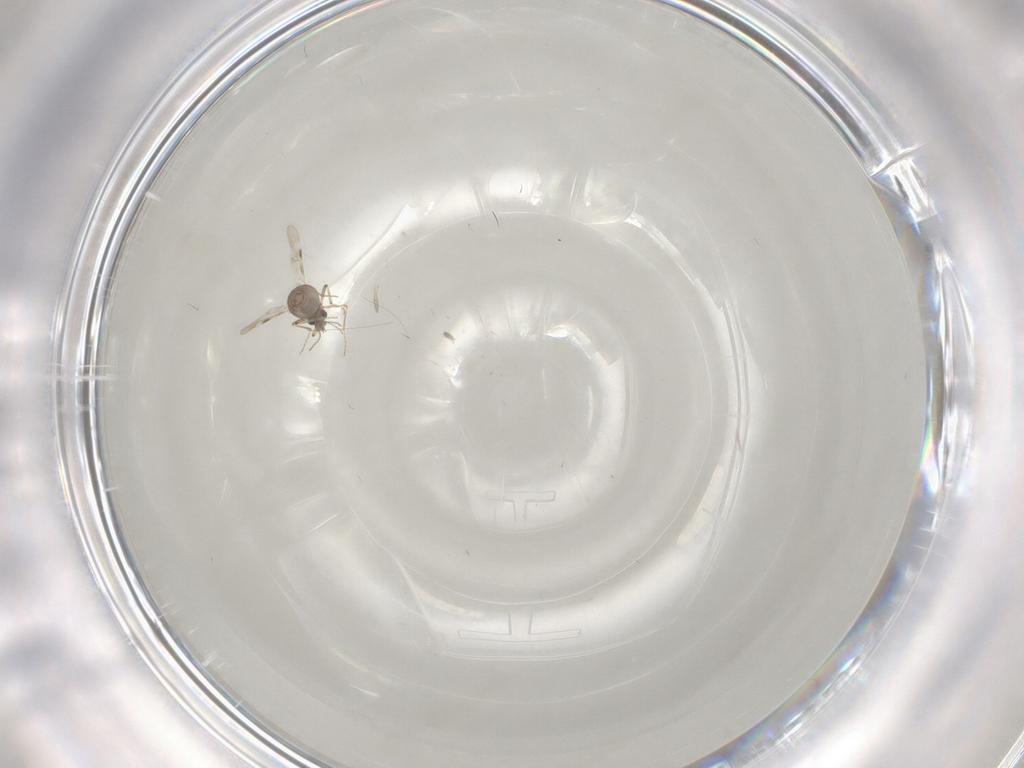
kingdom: Animalia
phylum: Arthropoda
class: Insecta
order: Diptera
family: Chironomidae
